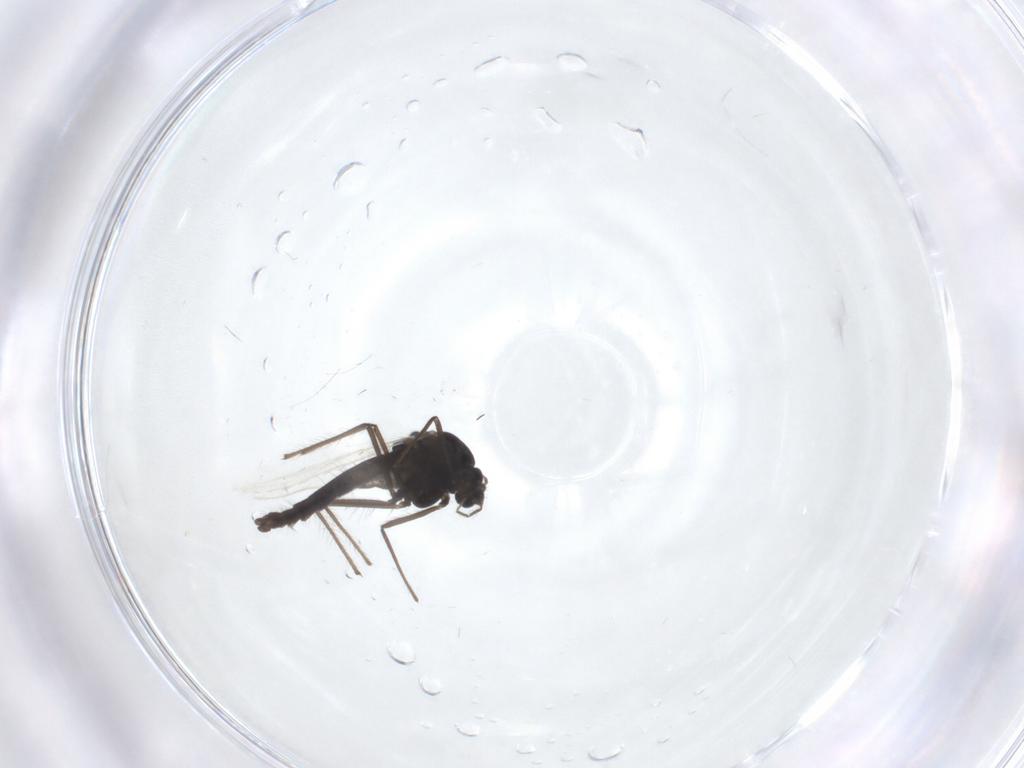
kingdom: Animalia
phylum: Arthropoda
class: Insecta
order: Diptera
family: Chironomidae
